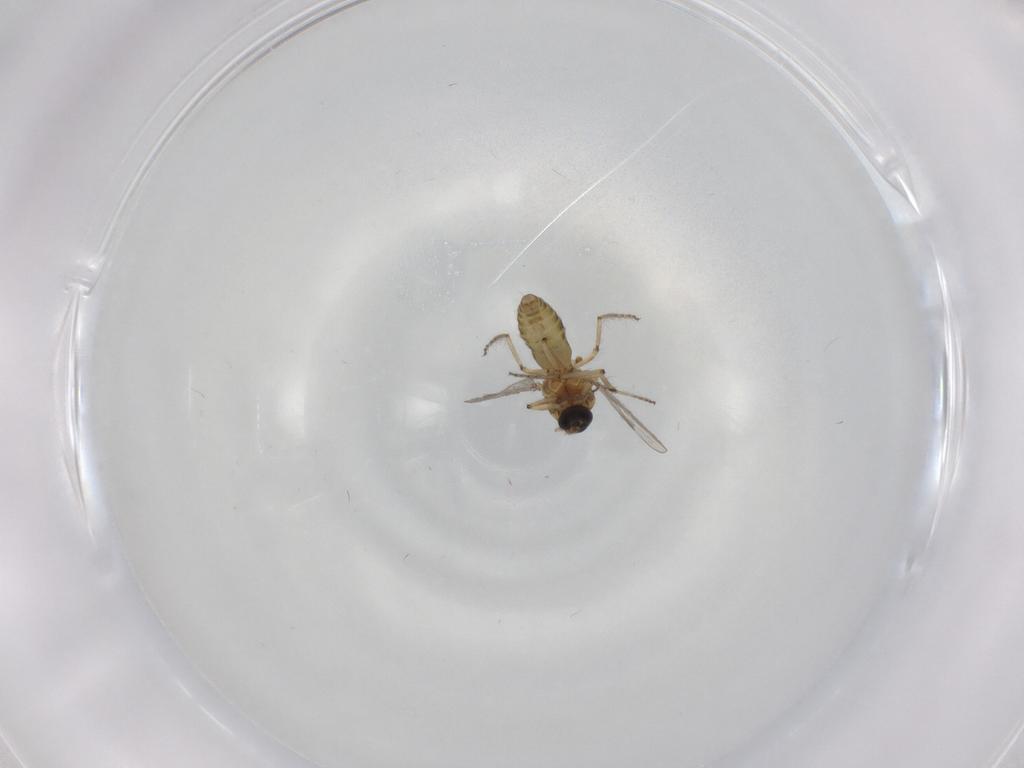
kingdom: Animalia
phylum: Arthropoda
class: Insecta
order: Diptera
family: Ceratopogonidae
